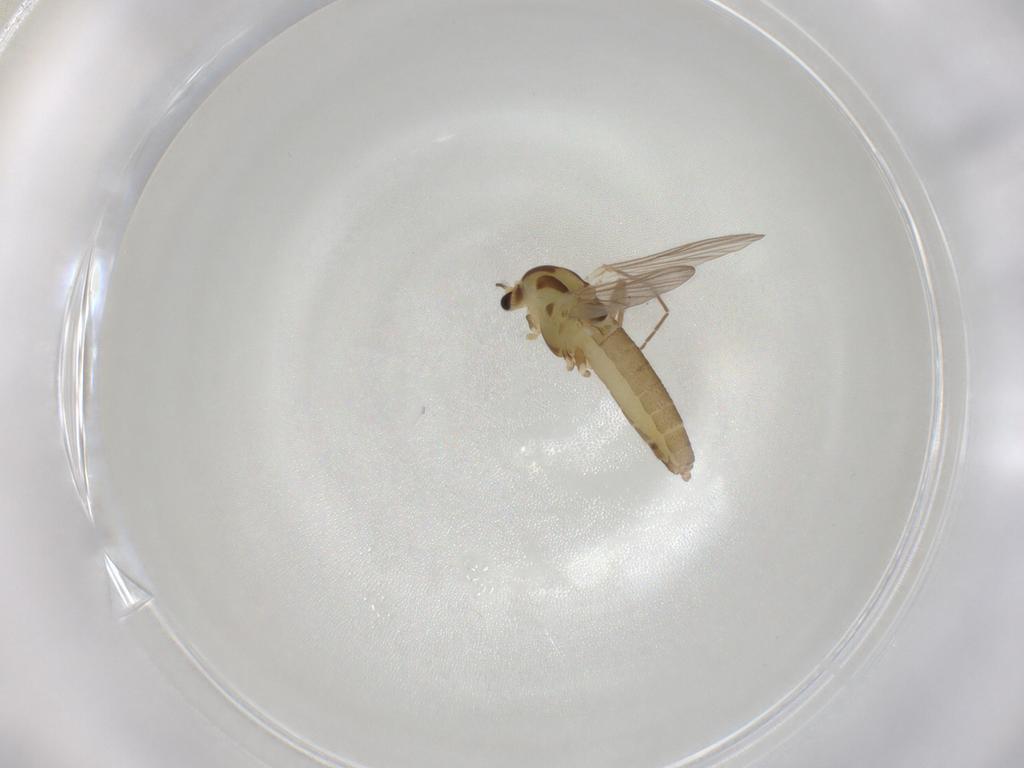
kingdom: Animalia
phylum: Arthropoda
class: Insecta
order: Diptera
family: Chironomidae
